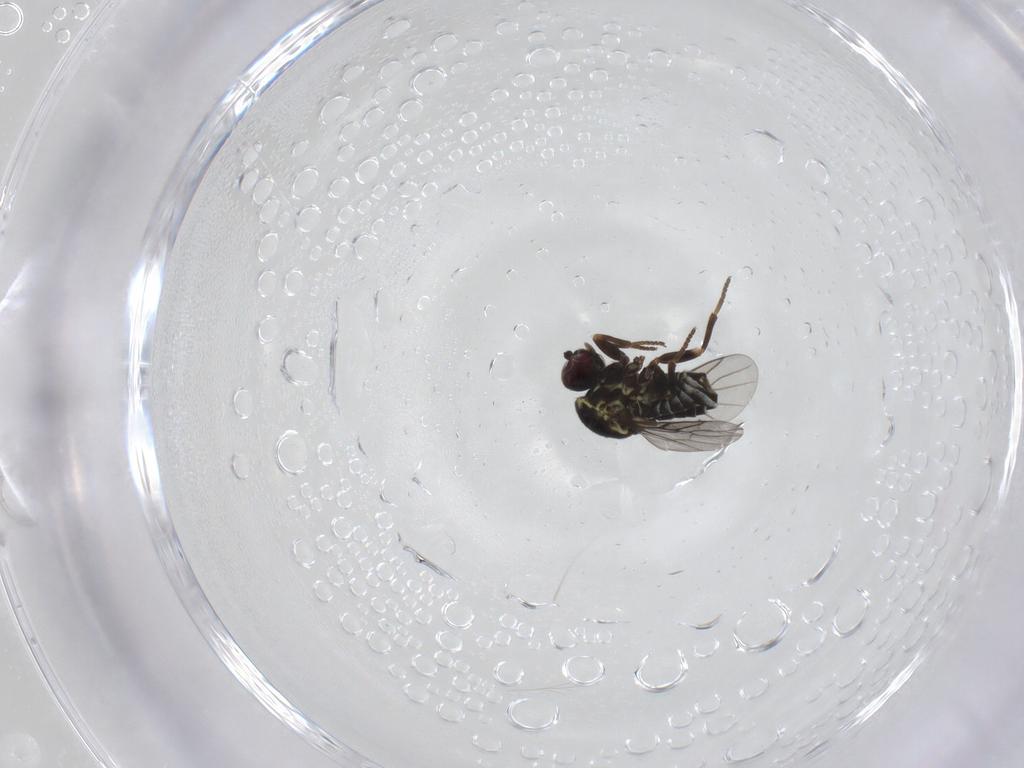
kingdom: Animalia
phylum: Arthropoda
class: Insecta
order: Diptera
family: Bombyliidae
